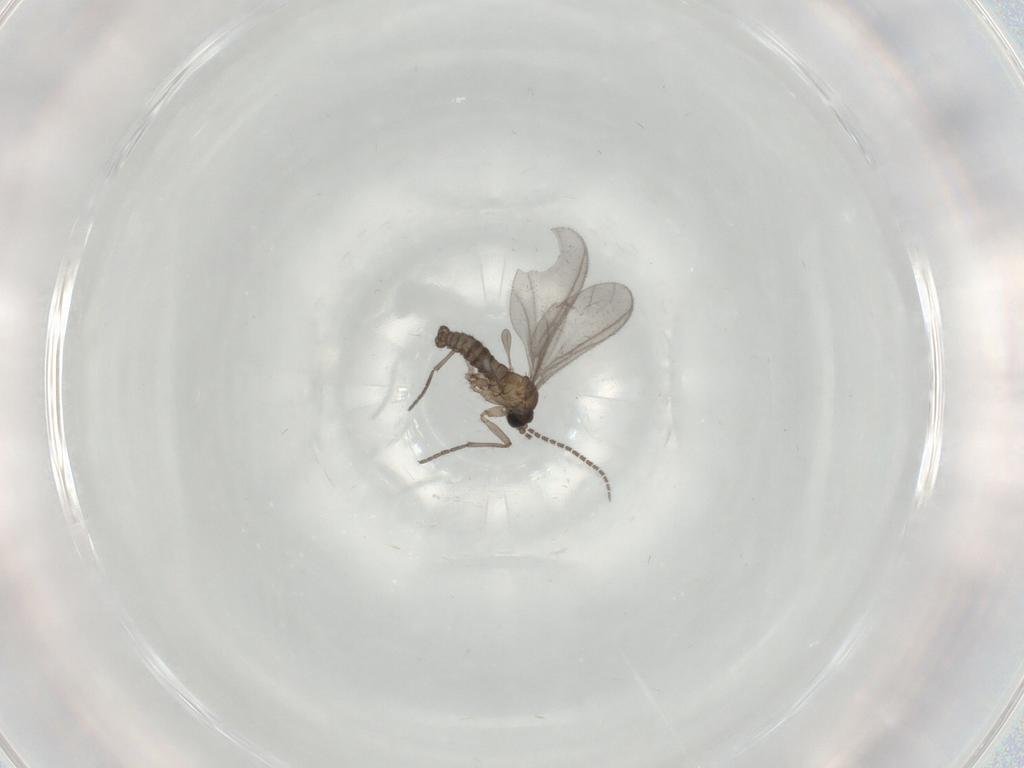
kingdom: Animalia
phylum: Arthropoda
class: Insecta
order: Diptera
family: Sciaridae
